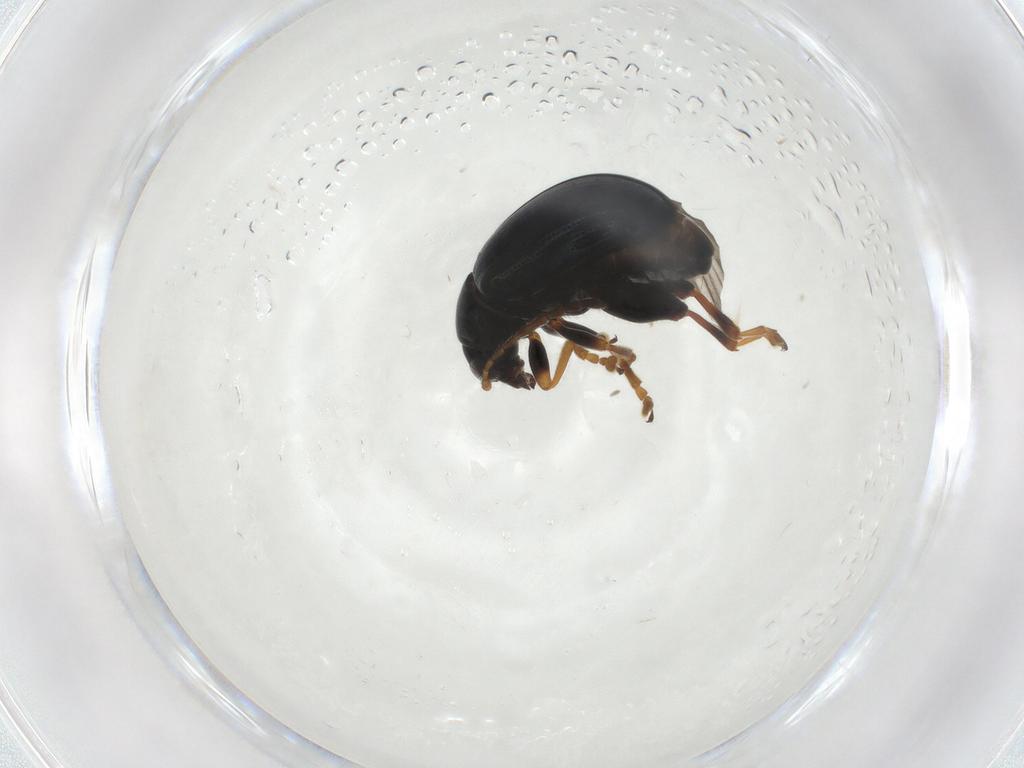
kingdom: Animalia
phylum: Arthropoda
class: Insecta
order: Coleoptera
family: Chrysomelidae
